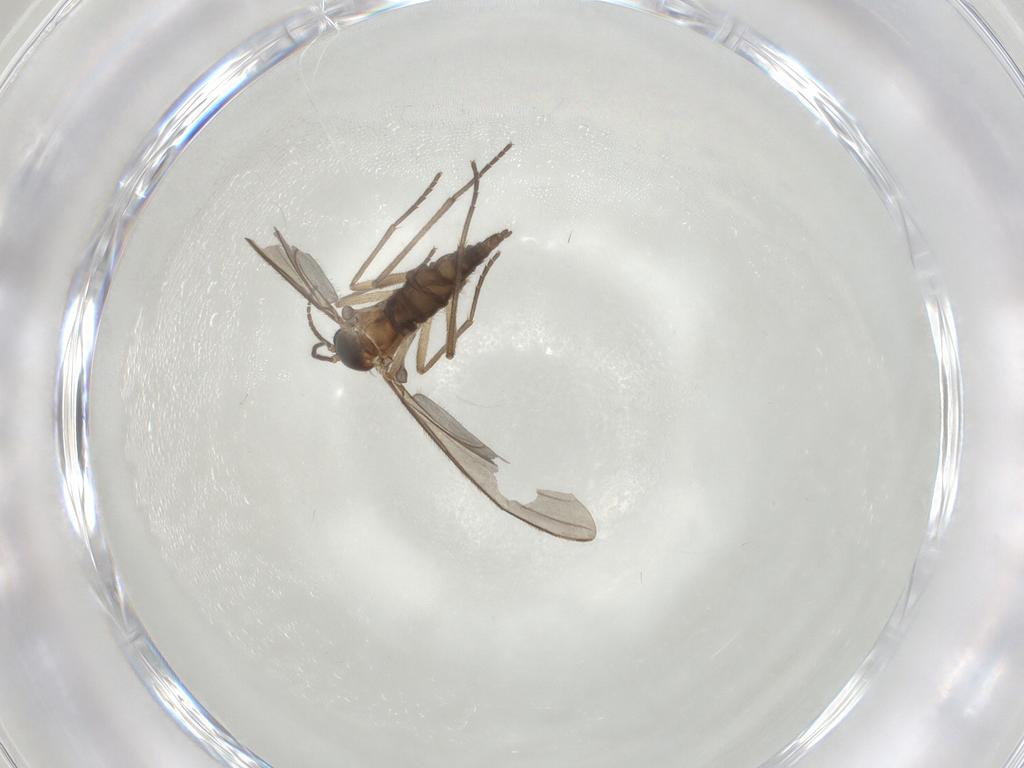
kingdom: Animalia
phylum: Arthropoda
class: Insecta
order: Diptera
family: Sciaridae
